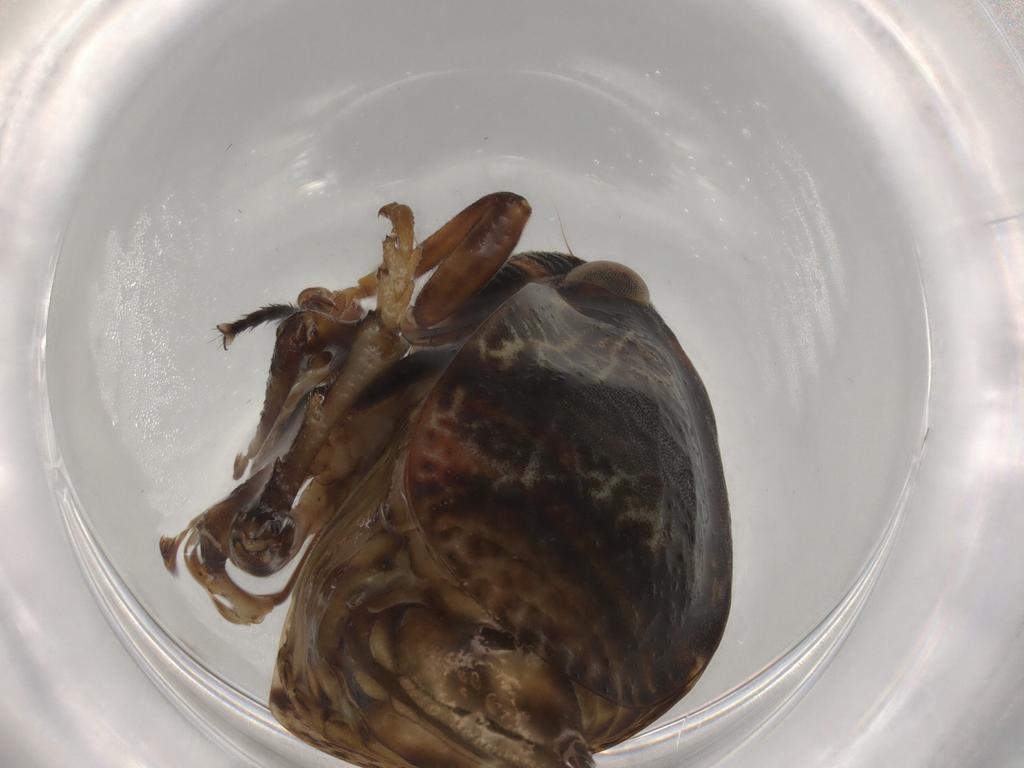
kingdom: Animalia
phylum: Arthropoda
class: Insecta
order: Hemiptera
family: Aphrophoridae
